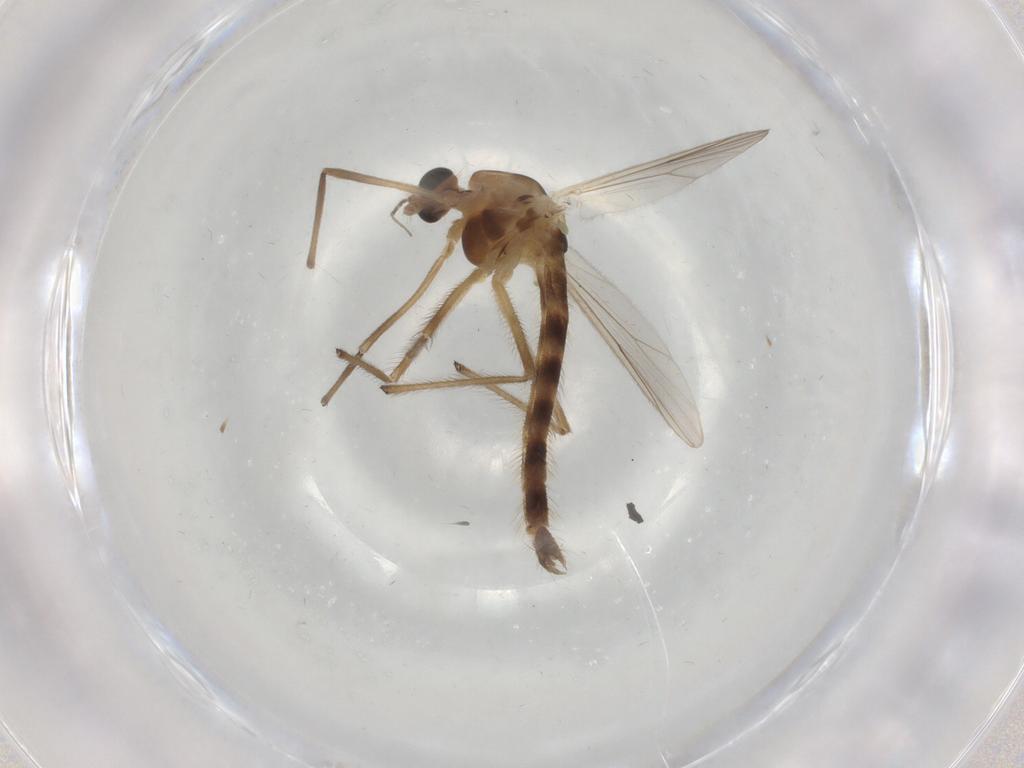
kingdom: Animalia
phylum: Arthropoda
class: Insecta
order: Diptera
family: Chironomidae
